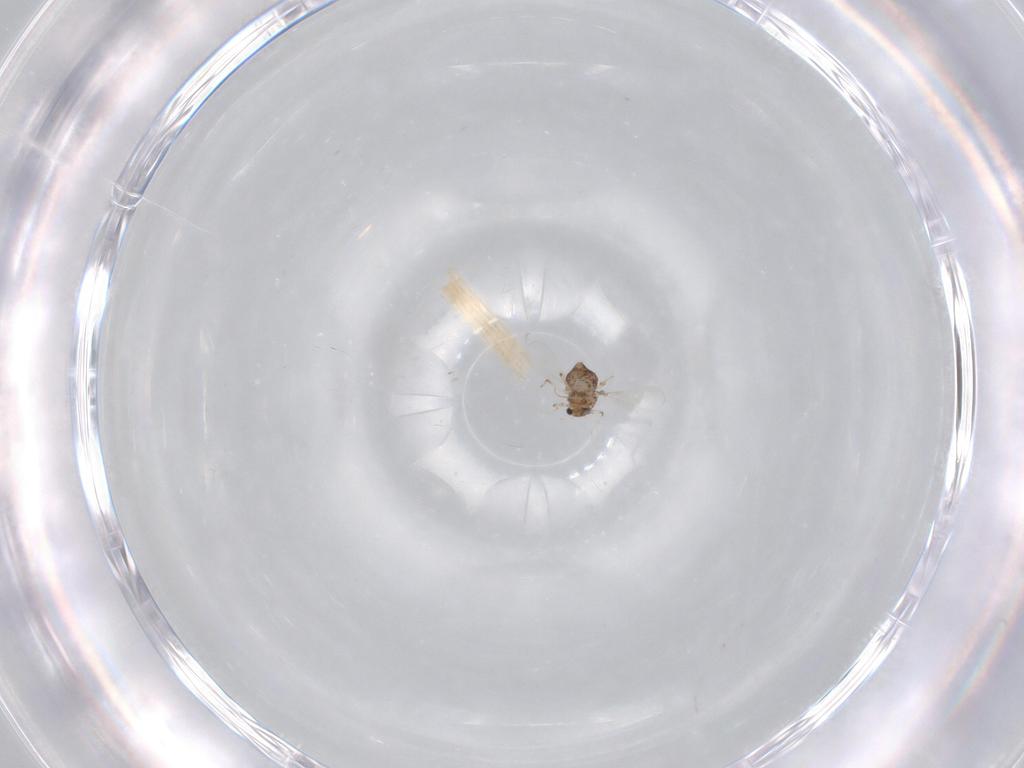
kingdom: Animalia
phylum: Arthropoda
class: Insecta
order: Diptera
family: Chironomidae
